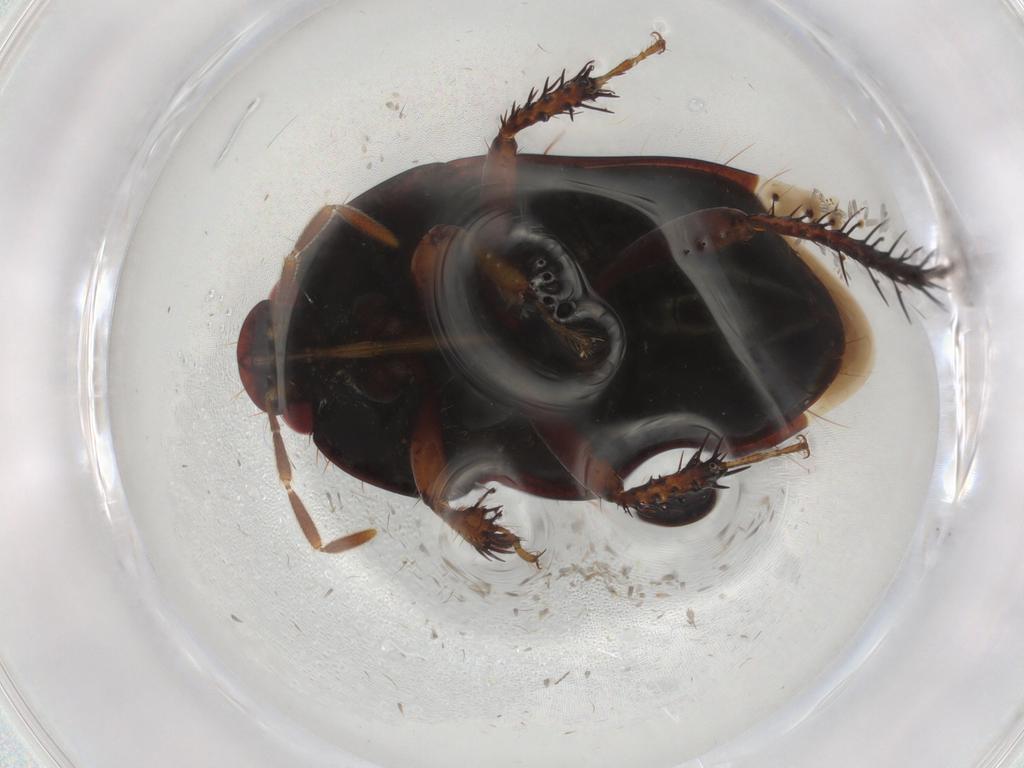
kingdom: Animalia
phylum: Arthropoda
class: Insecta
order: Hemiptera
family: Cydnidae
